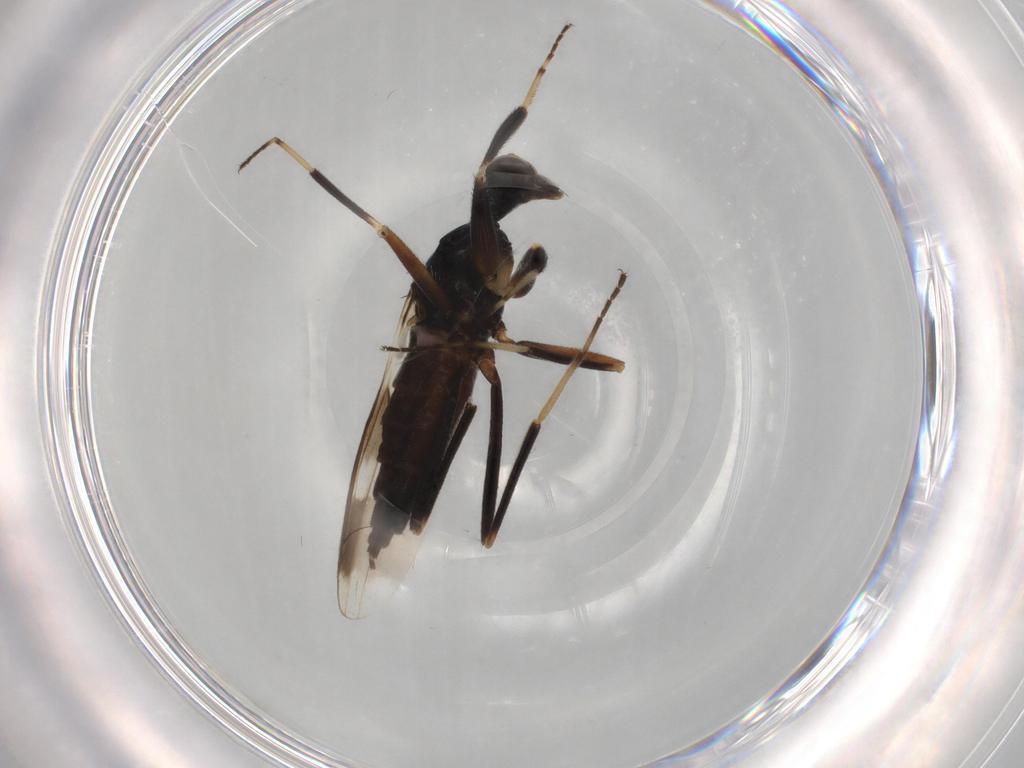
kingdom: Animalia
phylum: Arthropoda
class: Insecta
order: Diptera
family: Hybotidae
